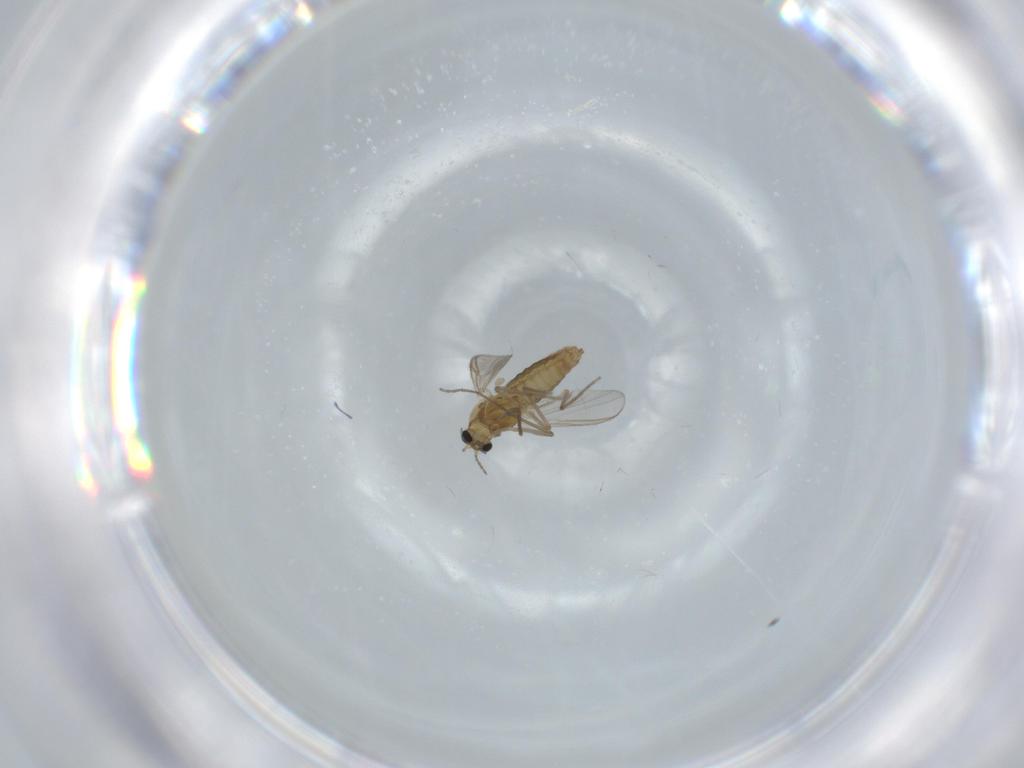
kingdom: Animalia
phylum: Arthropoda
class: Insecta
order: Diptera
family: Chironomidae
